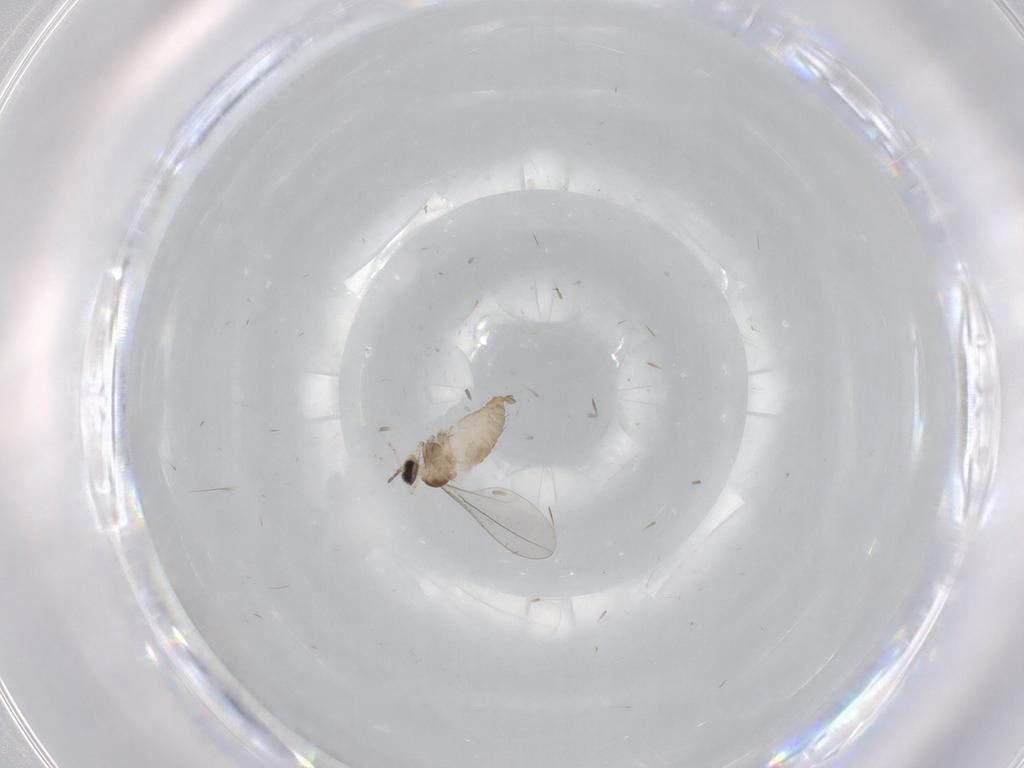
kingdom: Animalia
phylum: Arthropoda
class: Insecta
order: Diptera
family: Cecidomyiidae
